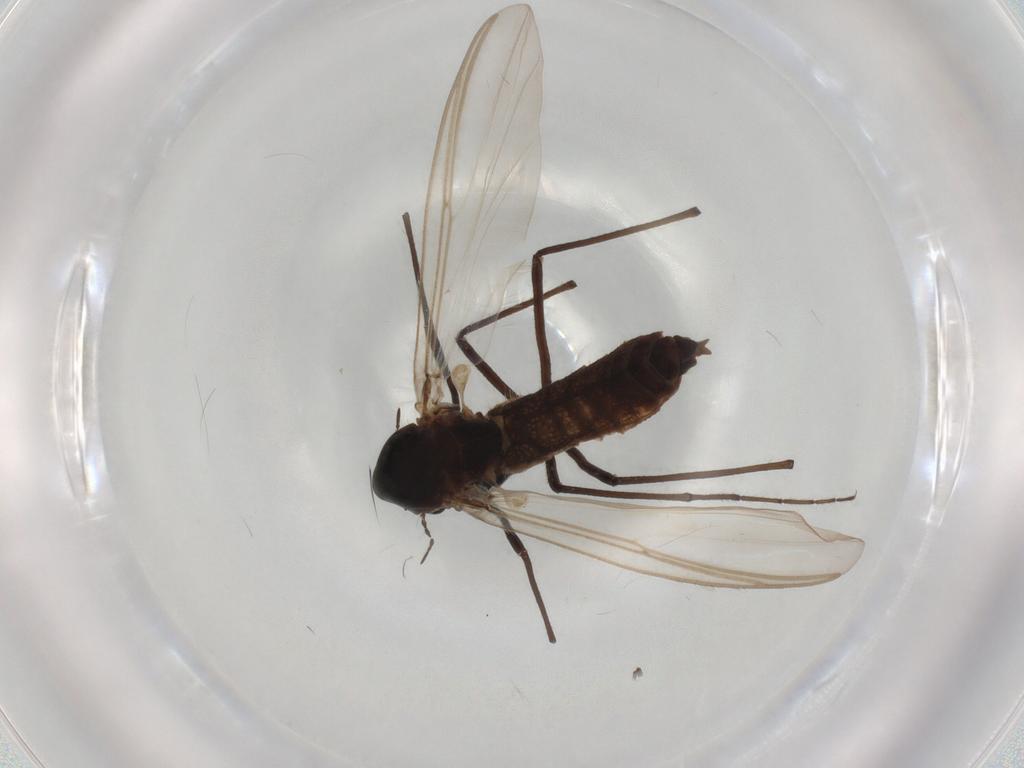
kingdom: Animalia
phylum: Arthropoda
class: Insecta
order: Diptera
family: Chironomidae
